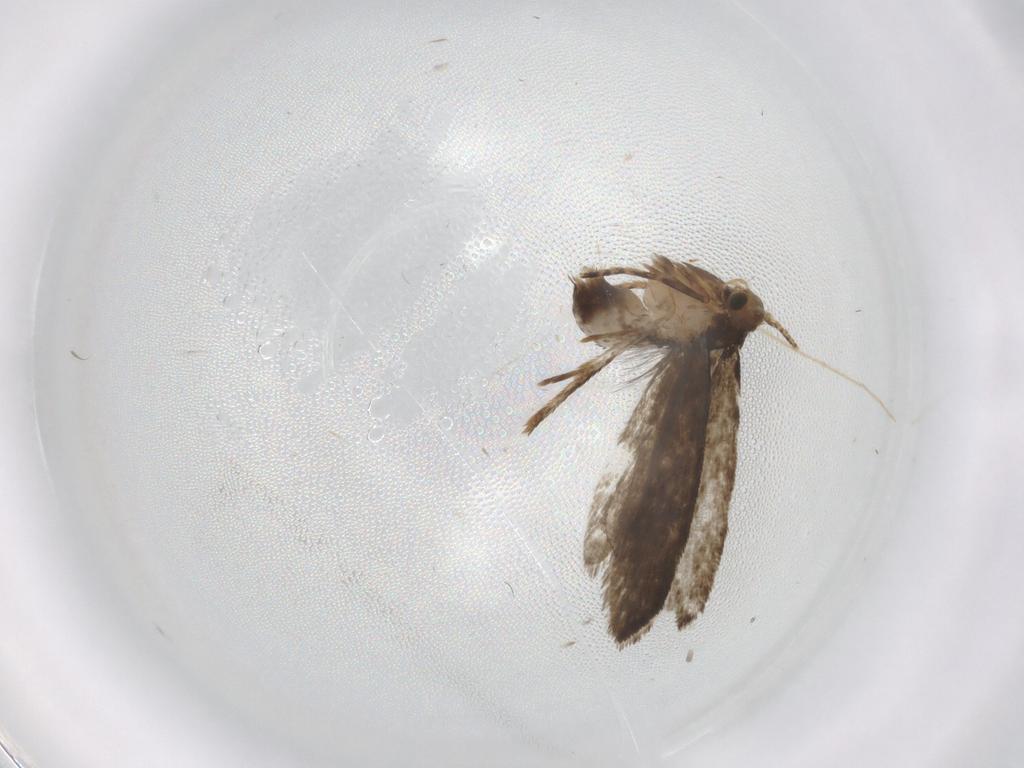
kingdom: Animalia
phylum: Arthropoda
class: Insecta
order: Lepidoptera
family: Tineidae
